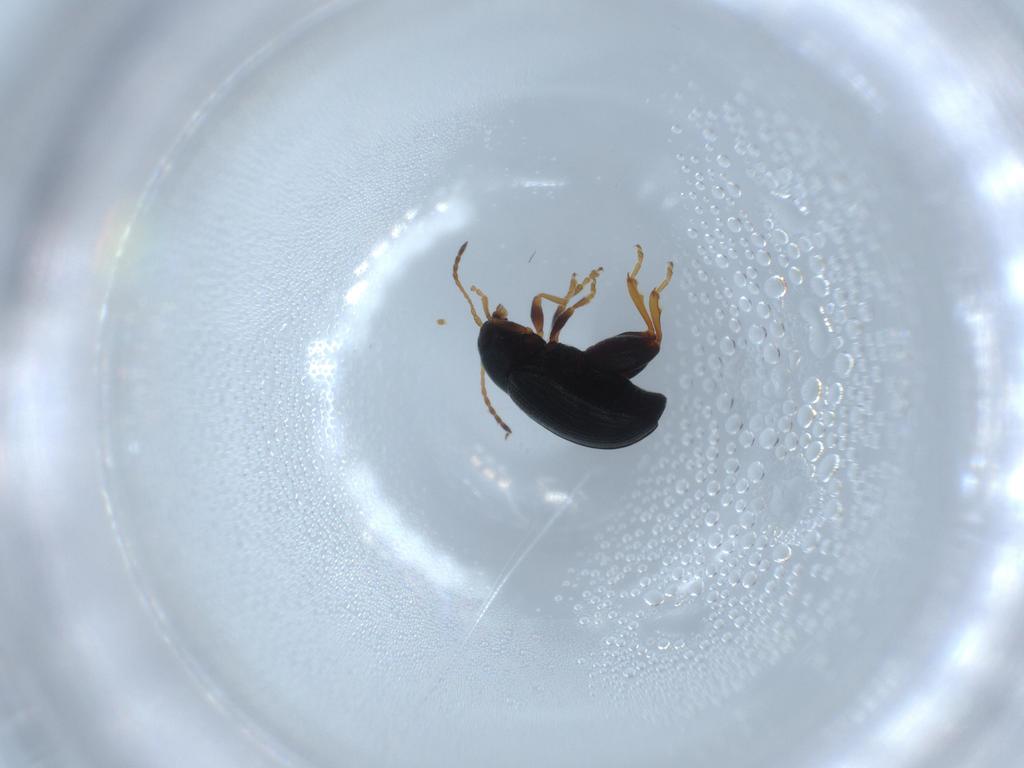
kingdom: Animalia
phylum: Arthropoda
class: Insecta
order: Coleoptera
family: Chrysomelidae
